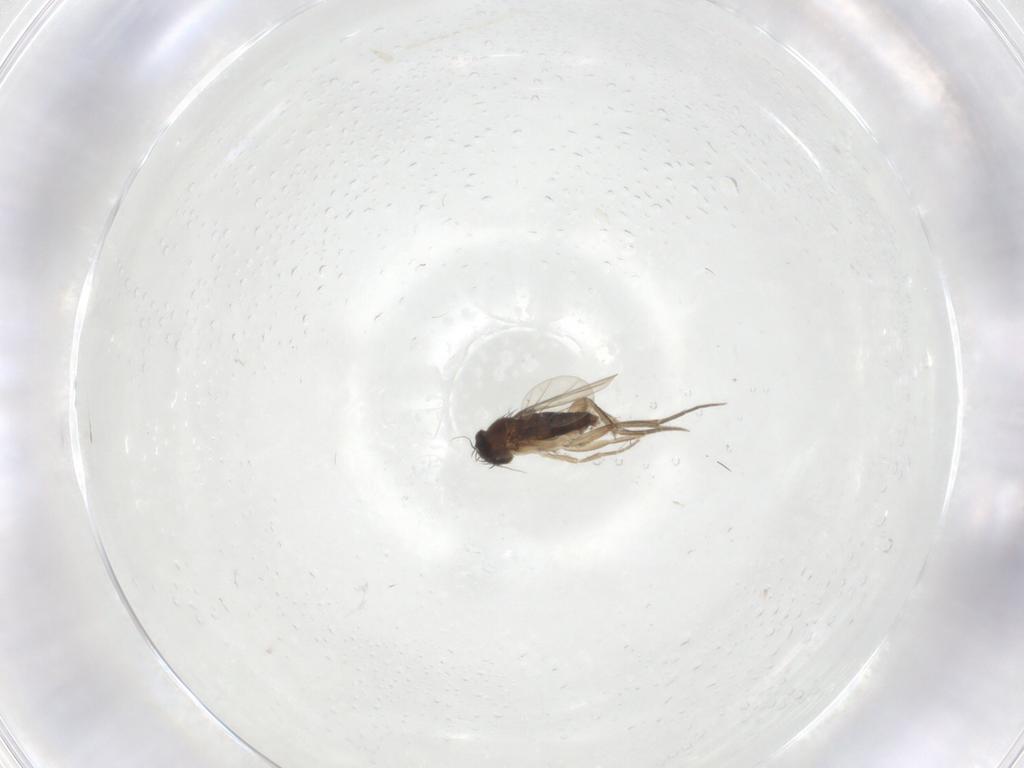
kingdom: Animalia
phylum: Arthropoda
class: Insecta
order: Diptera
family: Phoridae
